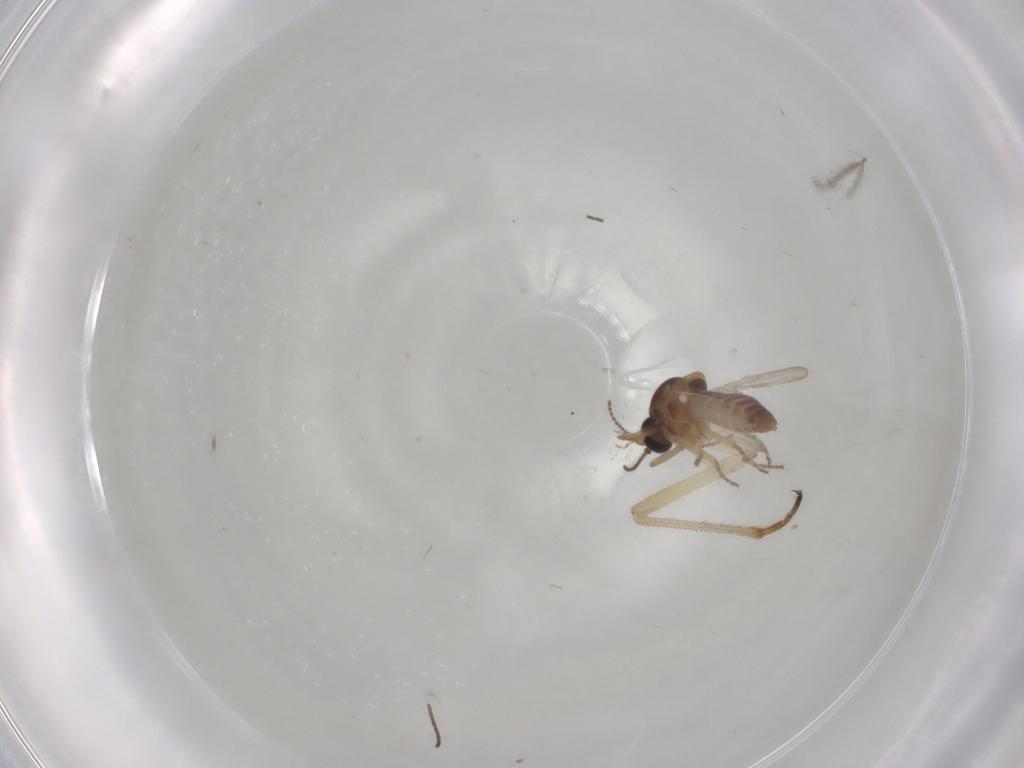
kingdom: Animalia
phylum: Arthropoda
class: Insecta
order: Diptera
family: Ceratopogonidae
